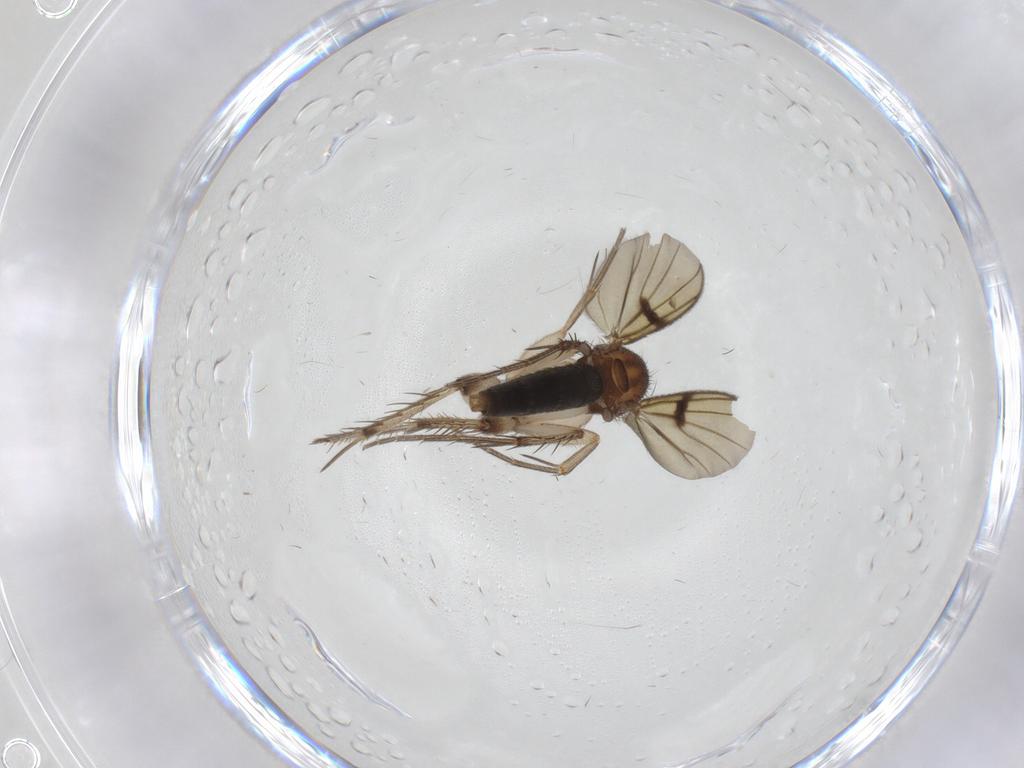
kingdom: Animalia
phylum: Arthropoda
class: Insecta
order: Diptera
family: Mycetophilidae
